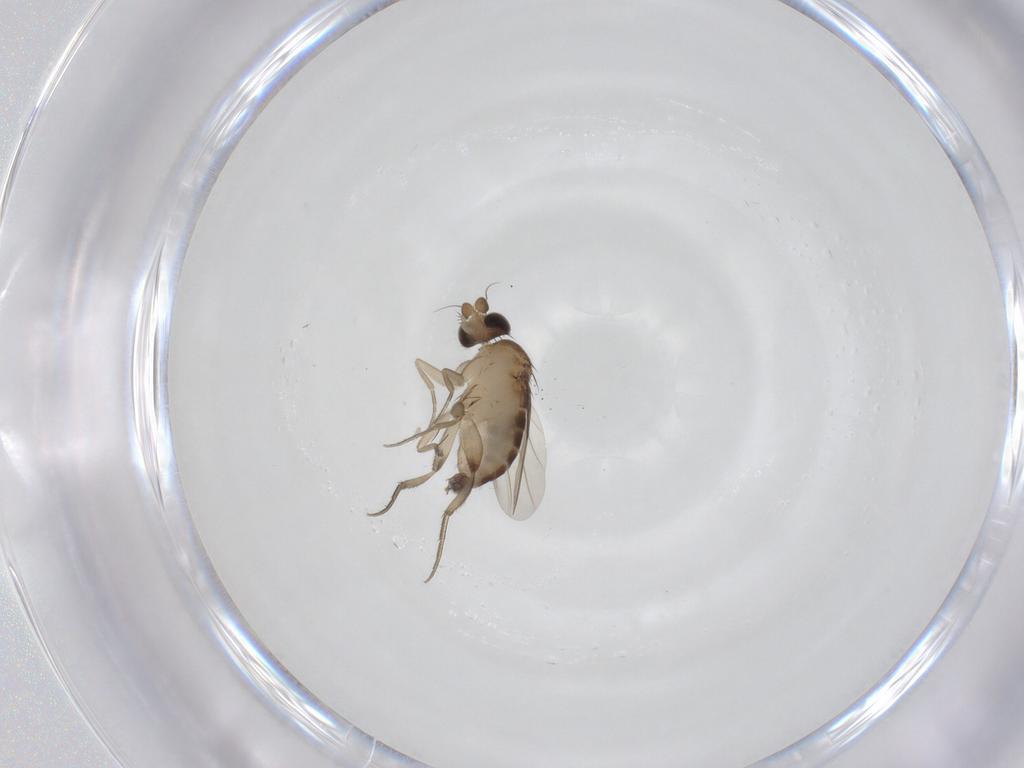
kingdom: Animalia
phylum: Arthropoda
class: Insecta
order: Diptera
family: Phoridae
